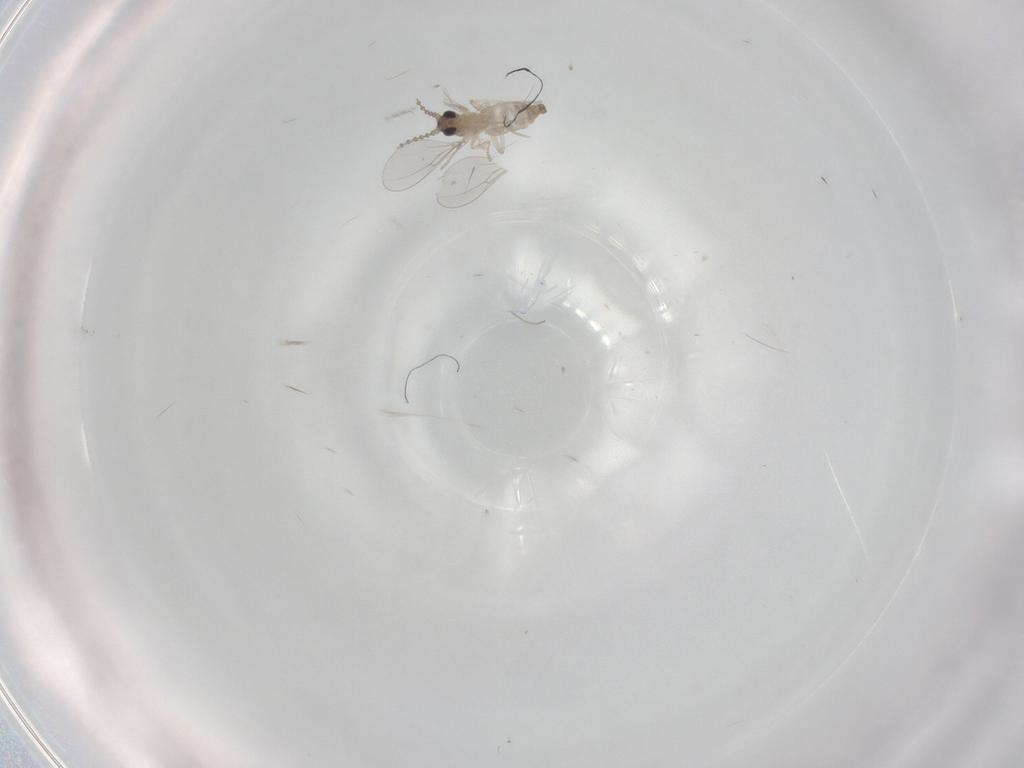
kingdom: Animalia
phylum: Arthropoda
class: Insecta
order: Diptera
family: Cecidomyiidae
